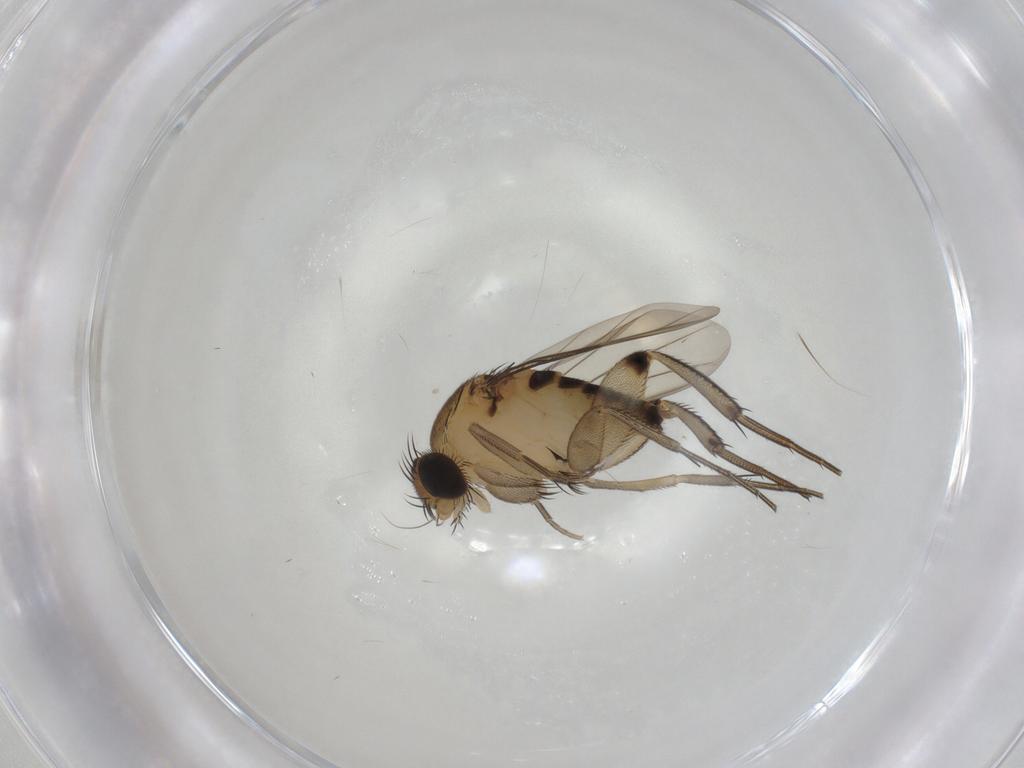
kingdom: Animalia
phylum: Arthropoda
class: Insecta
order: Diptera
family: Phoridae
